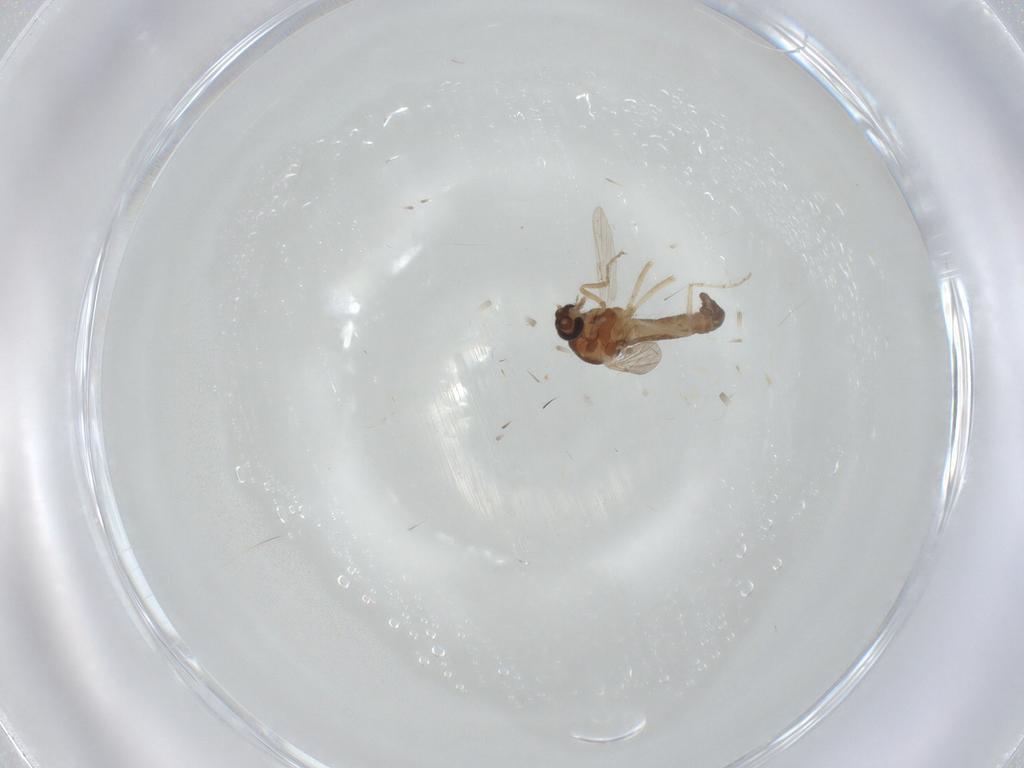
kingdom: Animalia
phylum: Arthropoda
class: Insecta
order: Diptera
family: Ceratopogonidae
